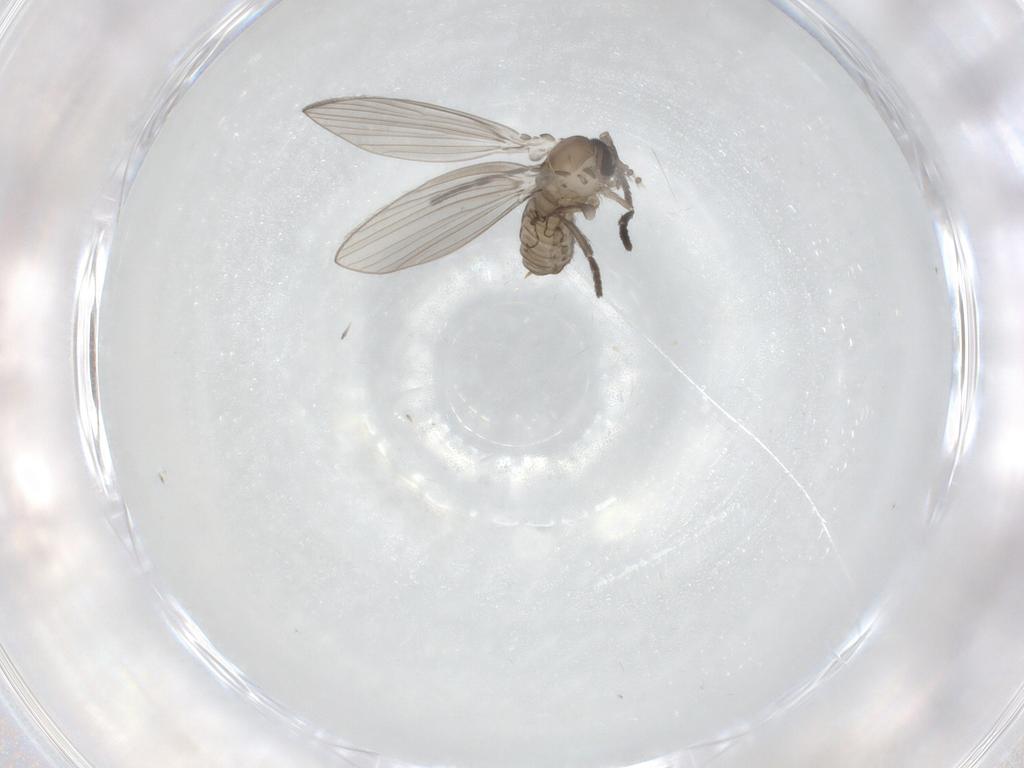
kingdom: Animalia
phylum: Arthropoda
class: Insecta
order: Diptera
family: Psychodidae
